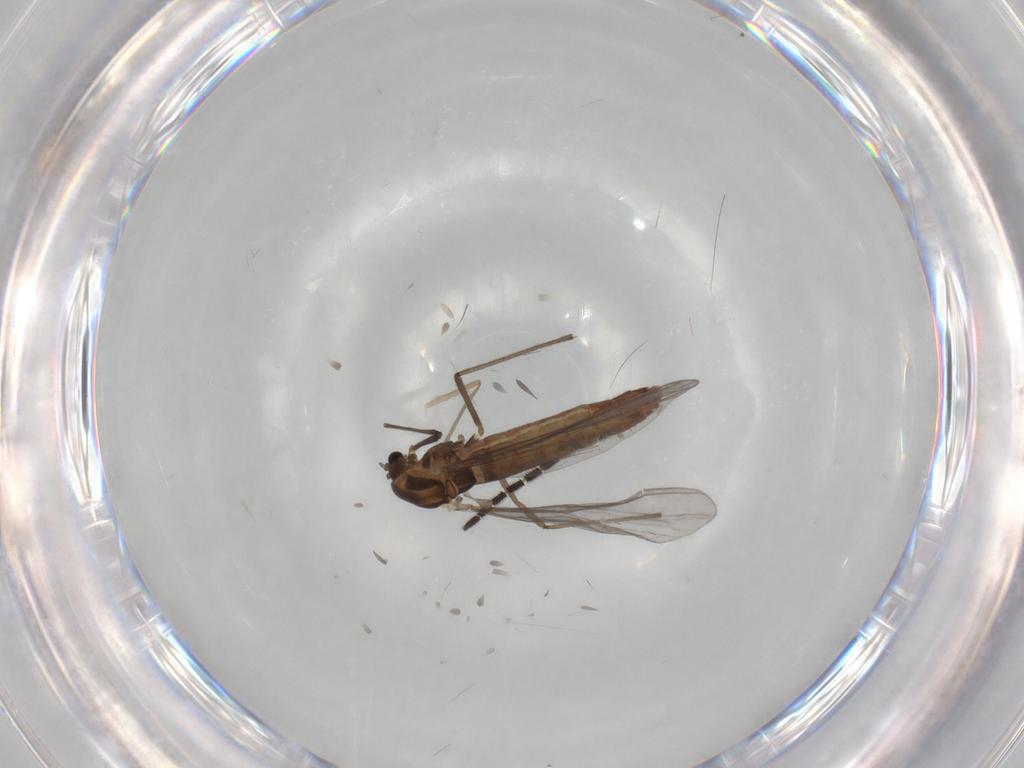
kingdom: Animalia
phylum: Arthropoda
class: Insecta
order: Diptera
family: Chironomidae
